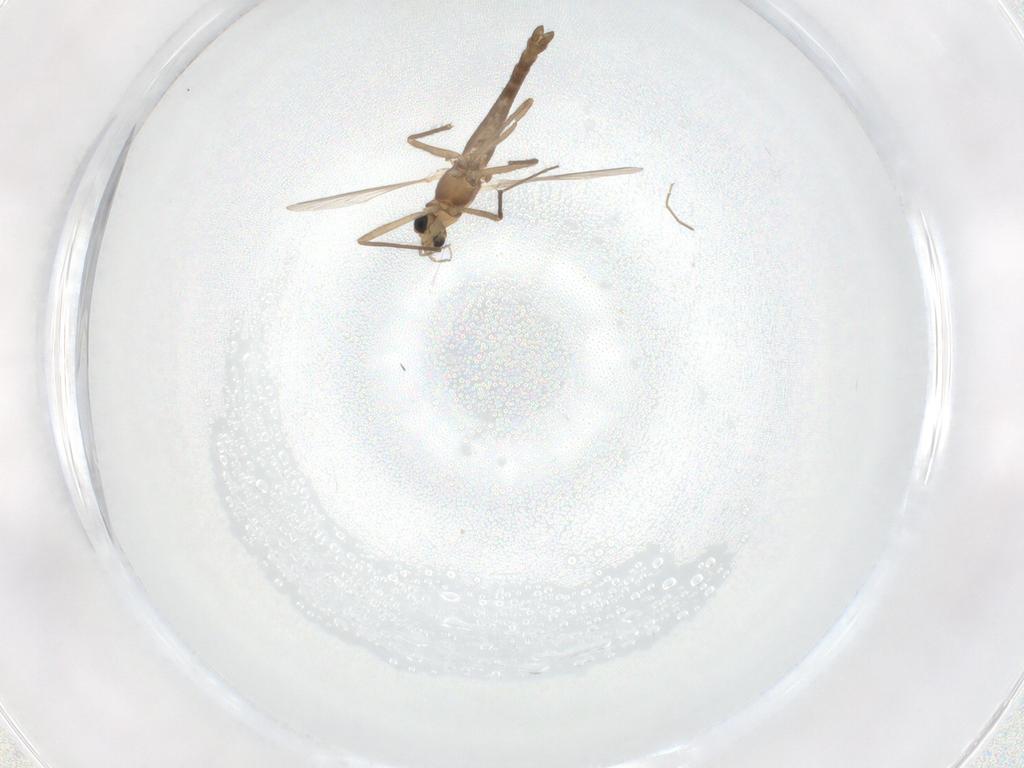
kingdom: Animalia
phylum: Arthropoda
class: Insecta
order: Diptera
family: Chironomidae
